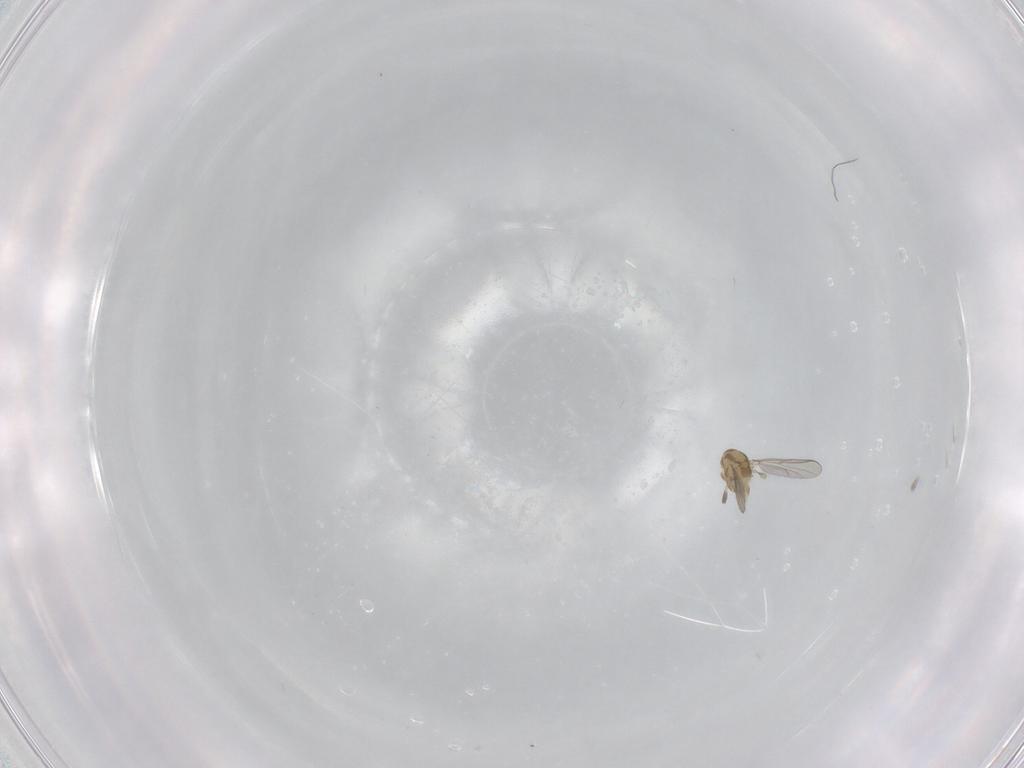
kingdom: Animalia
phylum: Arthropoda
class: Insecta
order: Diptera
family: Chironomidae
